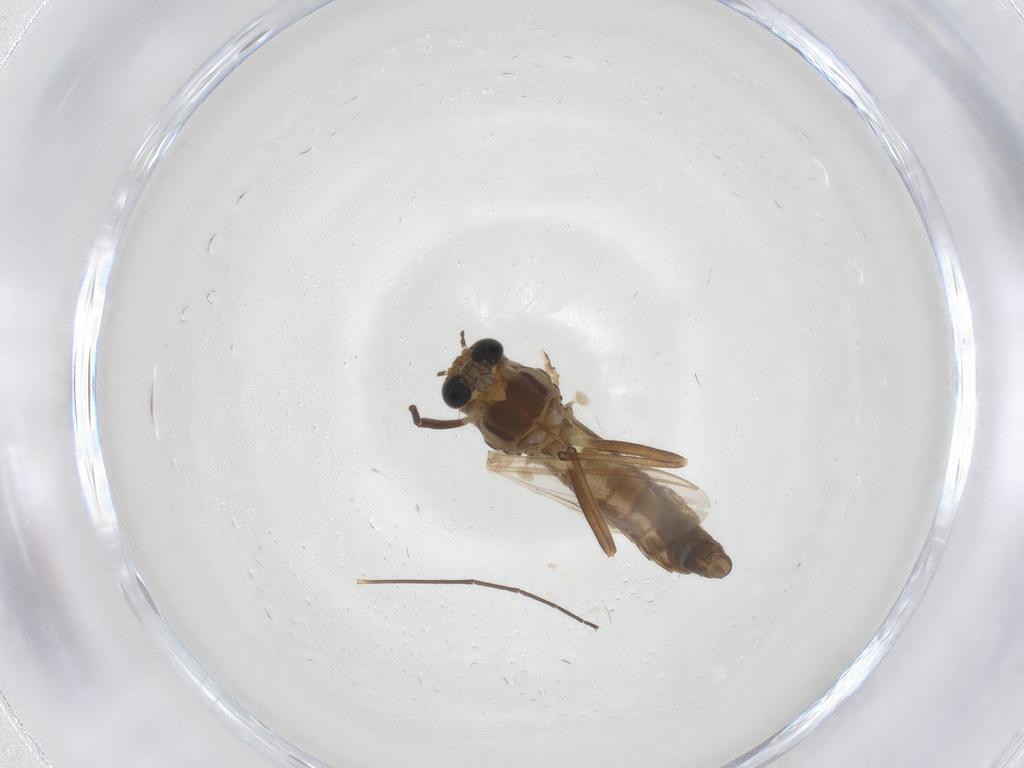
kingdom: Animalia
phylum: Arthropoda
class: Insecta
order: Diptera
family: Chironomidae
